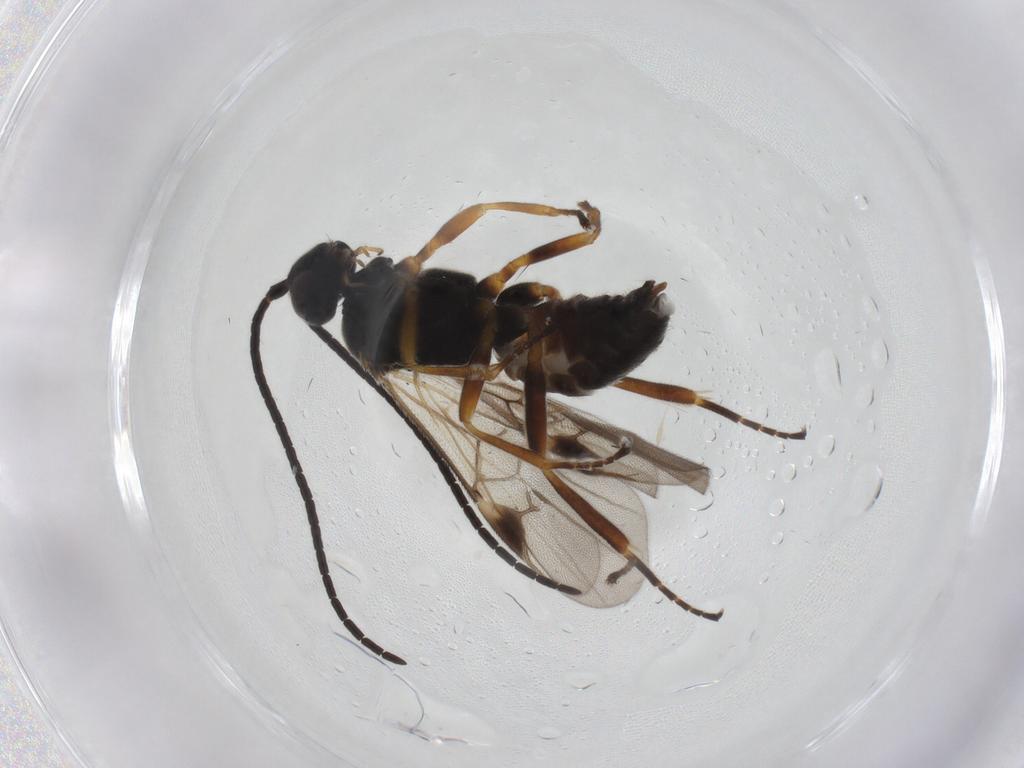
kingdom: Animalia
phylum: Arthropoda
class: Insecta
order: Hymenoptera
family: Braconidae
